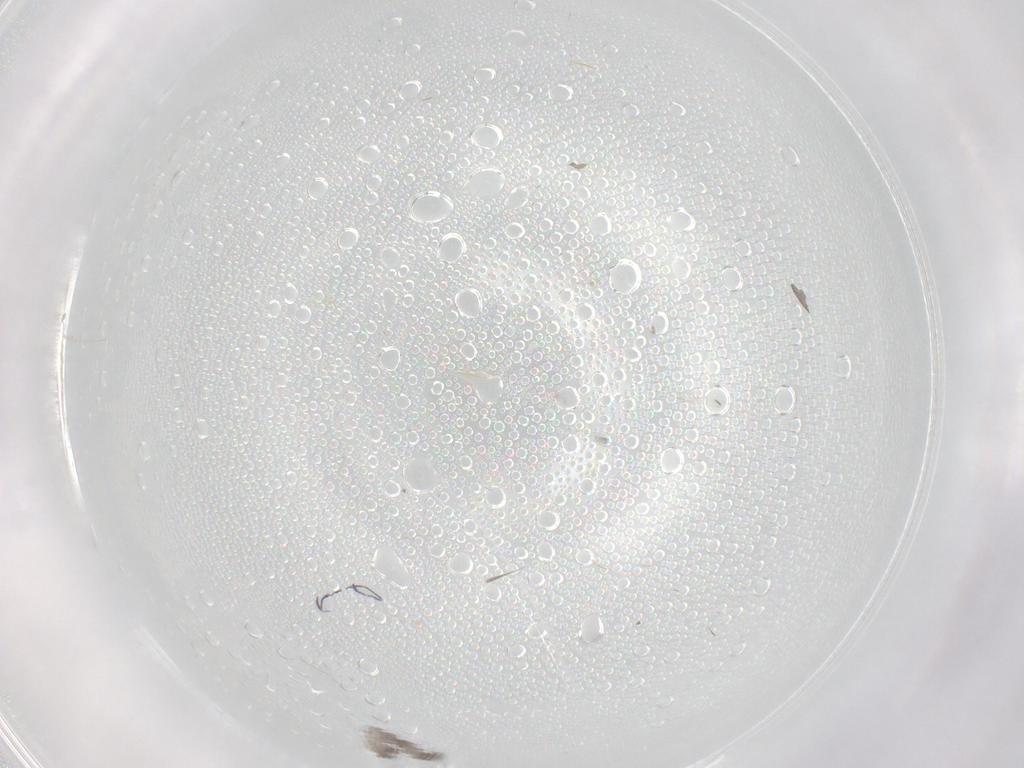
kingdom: Animalia
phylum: Arthropoda
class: Insecta
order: Diptera
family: Cecidomyiidae
